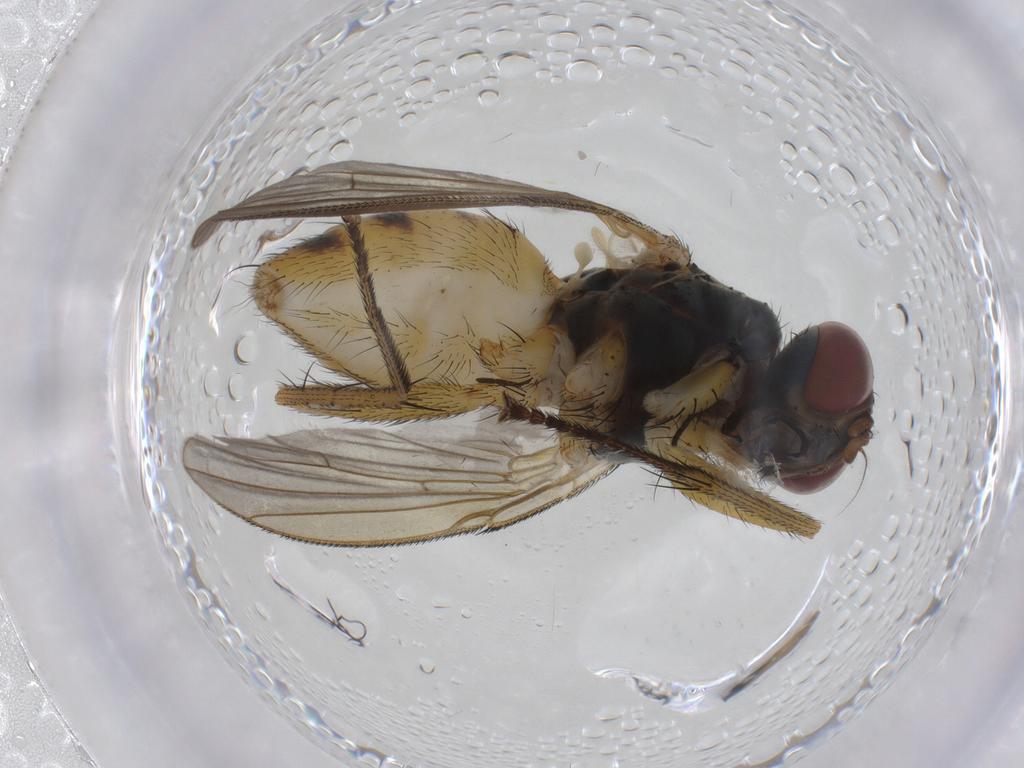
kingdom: Animalia
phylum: Arthropoda
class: Insecta
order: Diptera
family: Muscidae
